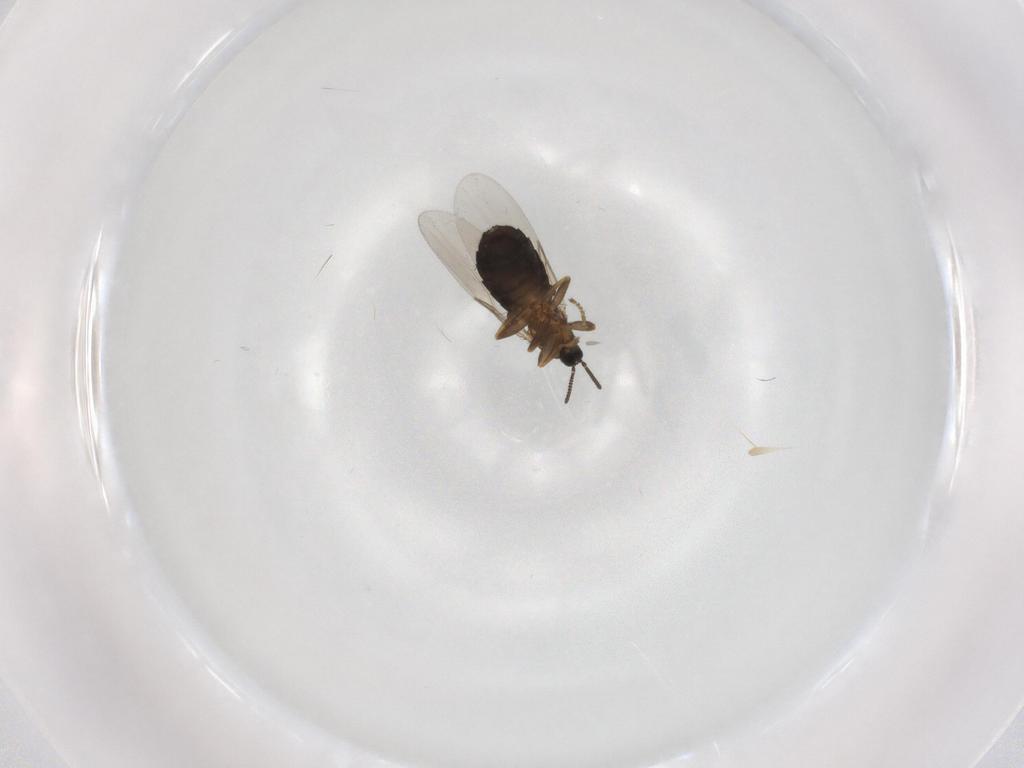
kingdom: Animalia
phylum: Arthropoda
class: Insecta
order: Diptera
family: Scatopsidae
